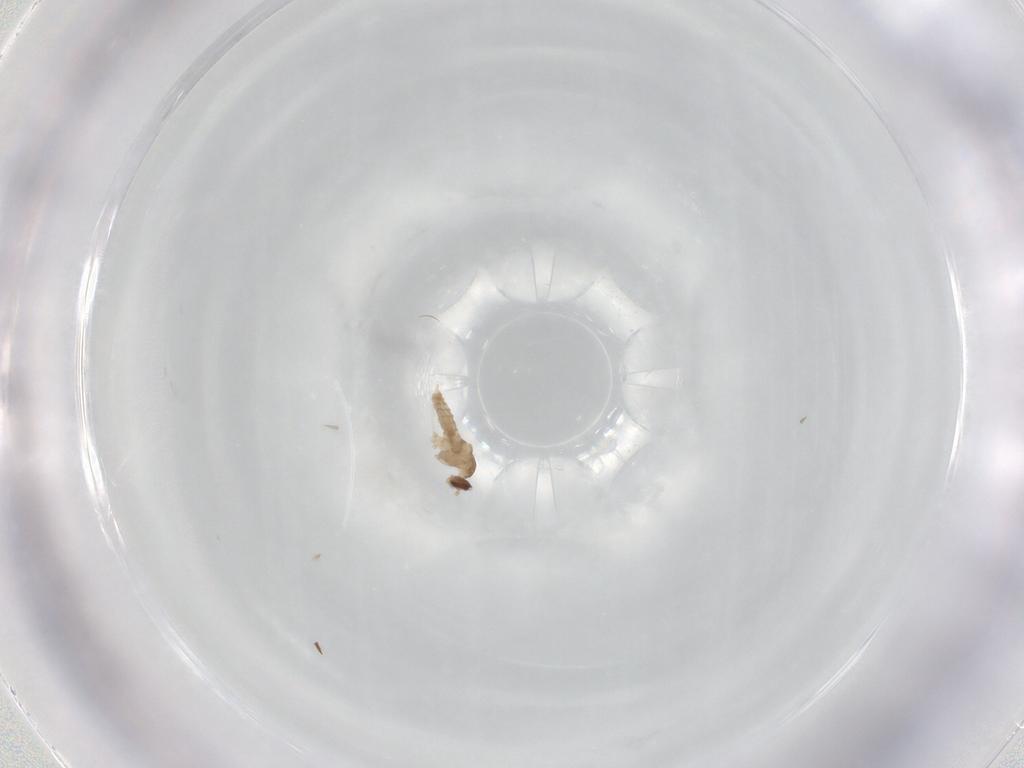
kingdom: Animalia
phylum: Arthropoda
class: Insecta
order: Diptera
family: Cecidomyiidae
